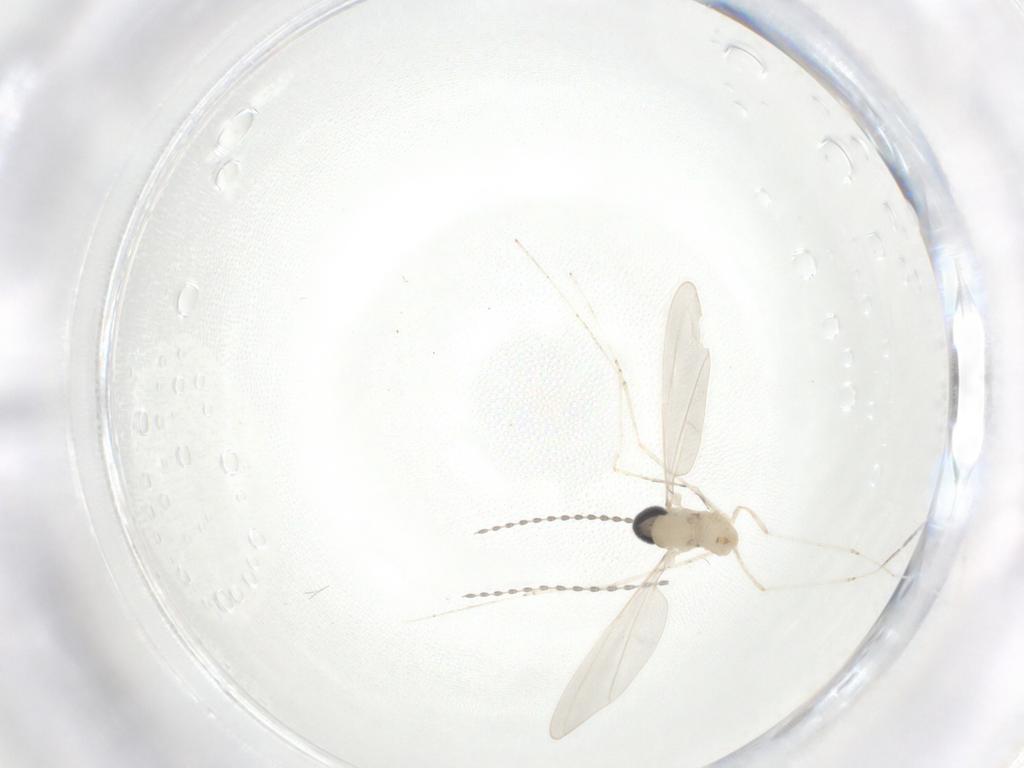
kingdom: Animalia
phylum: Arthropoda
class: Insecta
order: Diptera
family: Cecidomyiidae
